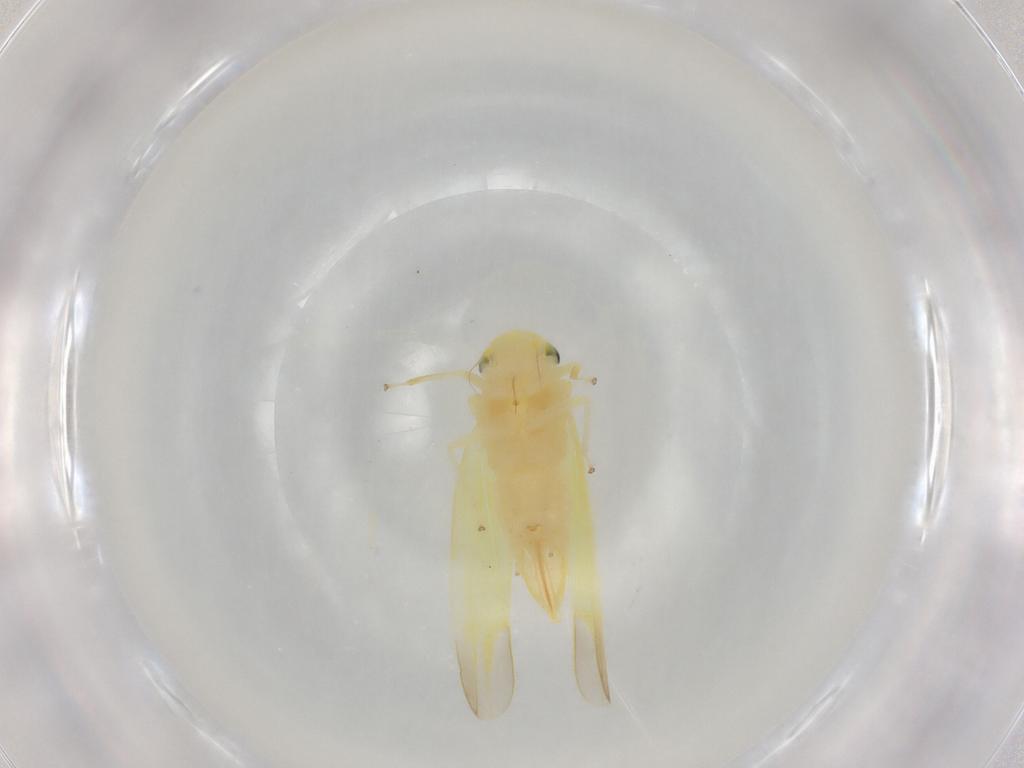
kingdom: Animalia
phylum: Arthropoda
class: Insecta
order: Hemiptera
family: Cicadellidae
